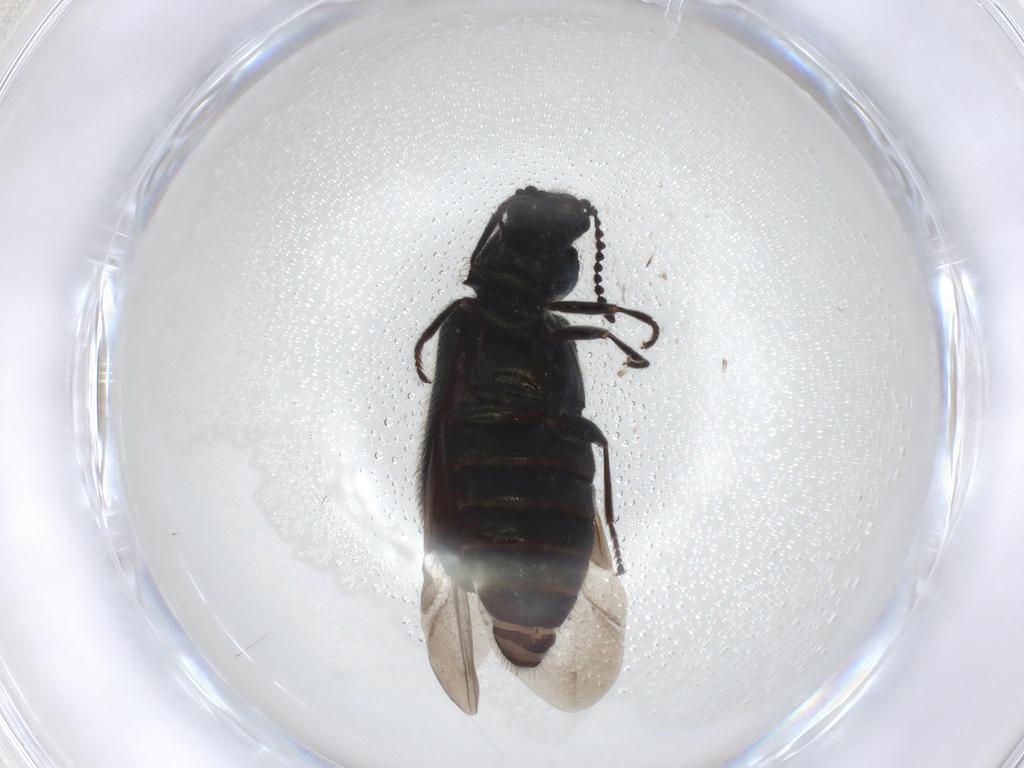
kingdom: Animalia
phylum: Arthropoda
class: Insecta
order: Coleoptera
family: Melyridae
